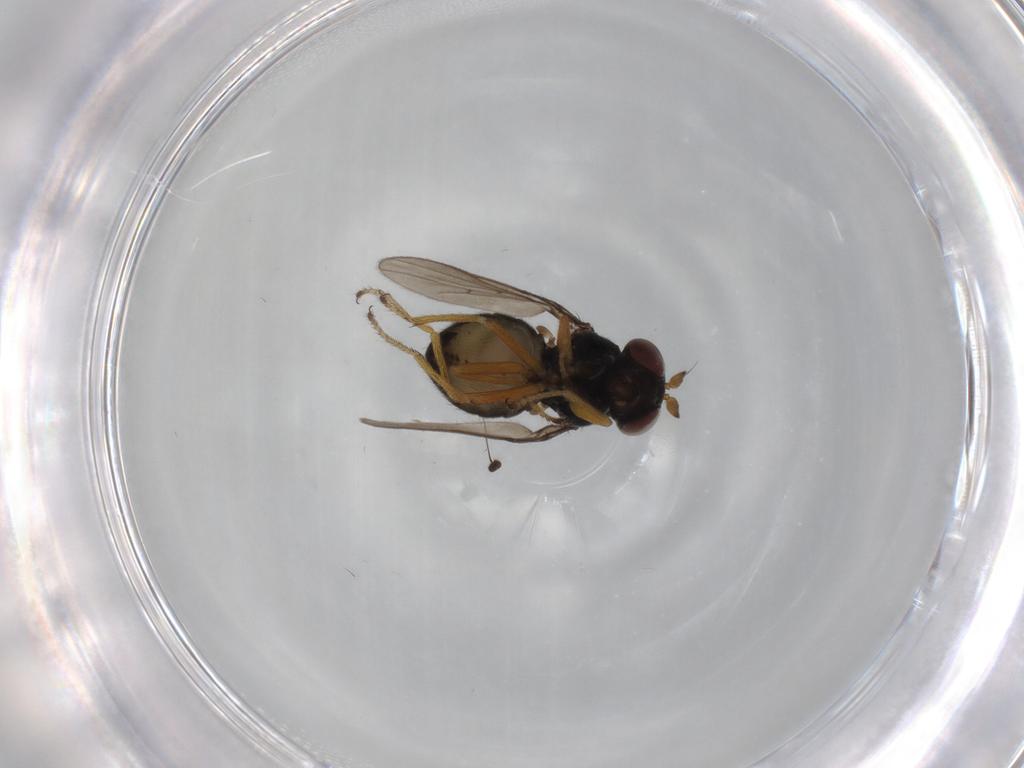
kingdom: Animalia
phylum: Arthropoda
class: Insecta
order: Diptera
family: Ephydridae
